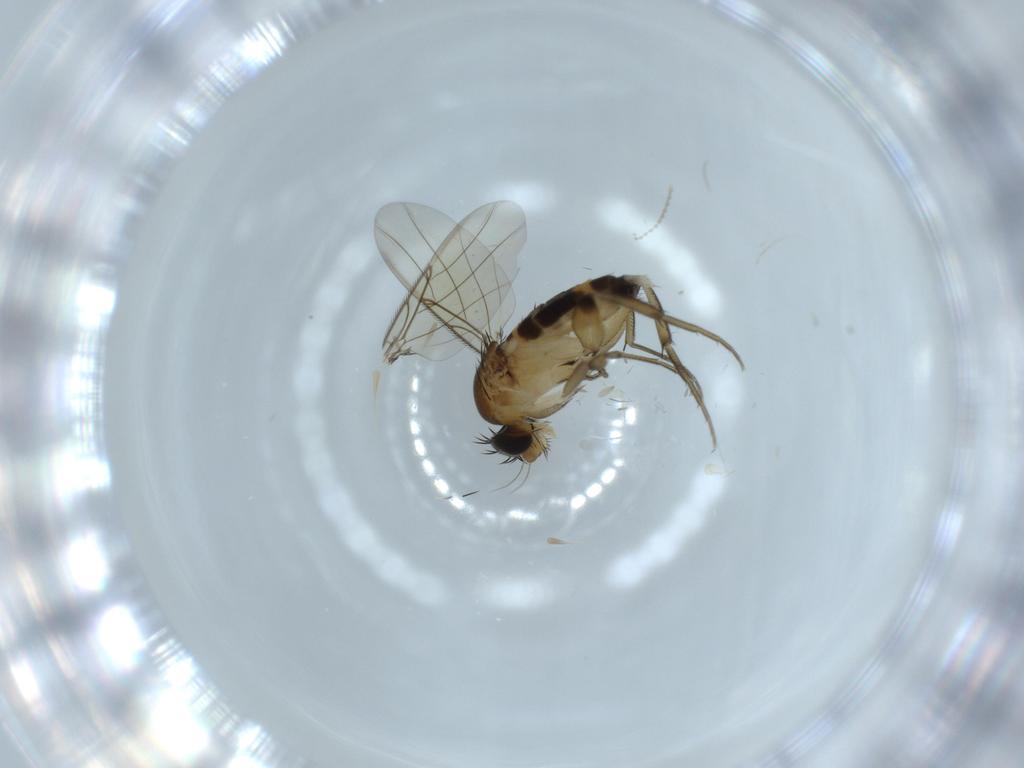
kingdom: Animalia
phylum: Arthropoda
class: Insecta
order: Diptera
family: Phoridae
